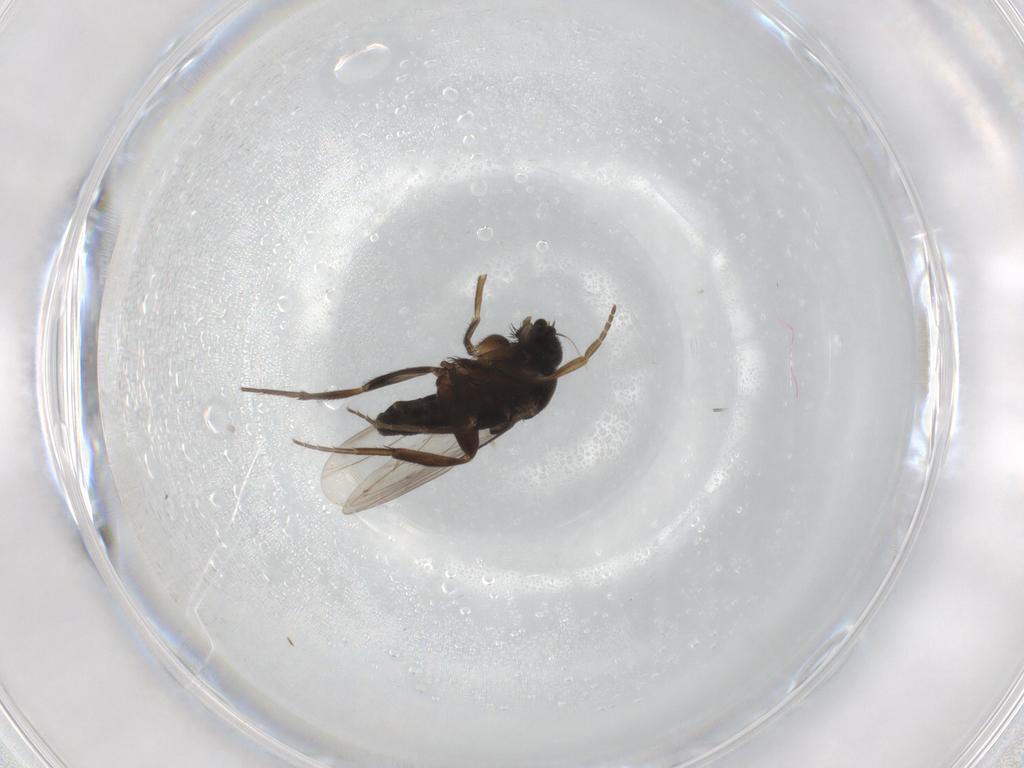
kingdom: Animalia
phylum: Arthropoda
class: Insecta
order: Diptera
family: Phoridae
